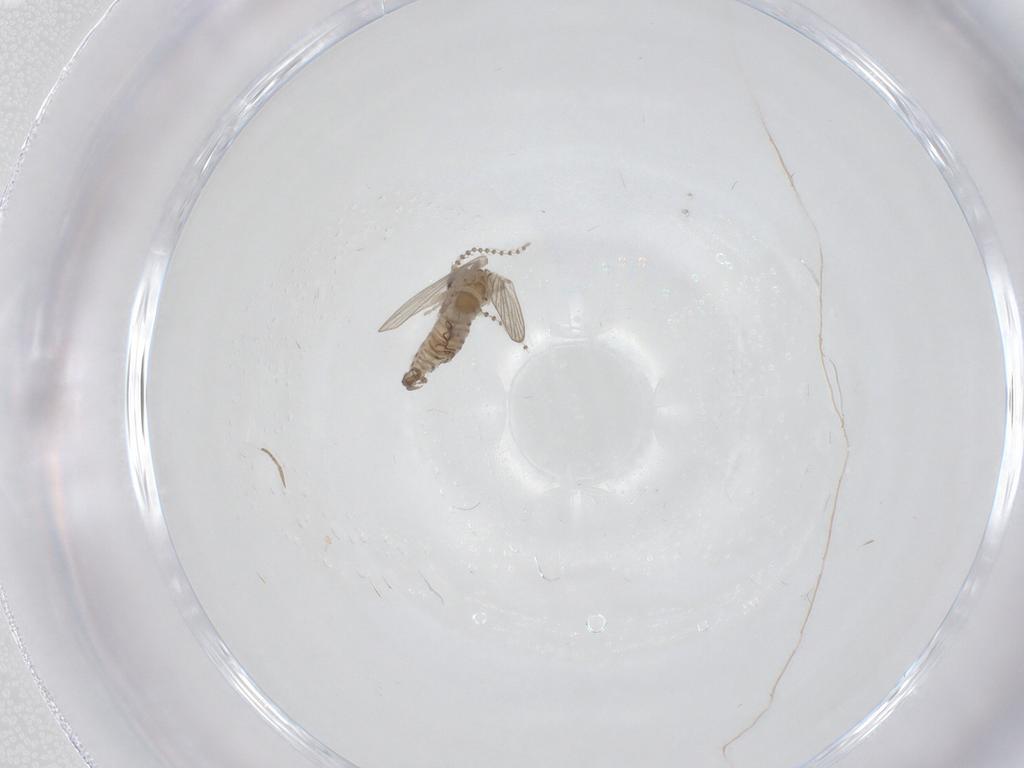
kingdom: Animalia
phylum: Arthropoda
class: Insecta
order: Diptera
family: Ceratopogonidae
